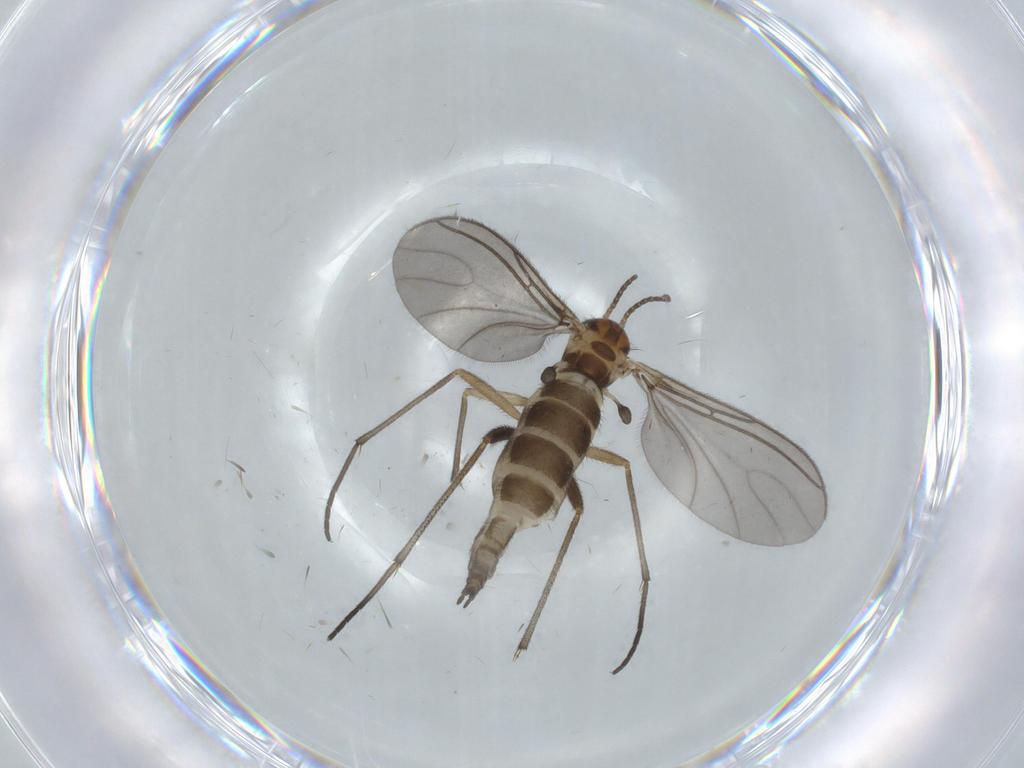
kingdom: Animalia
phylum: Arthropoda
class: Insecta
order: Diptera
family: Sciaridae
